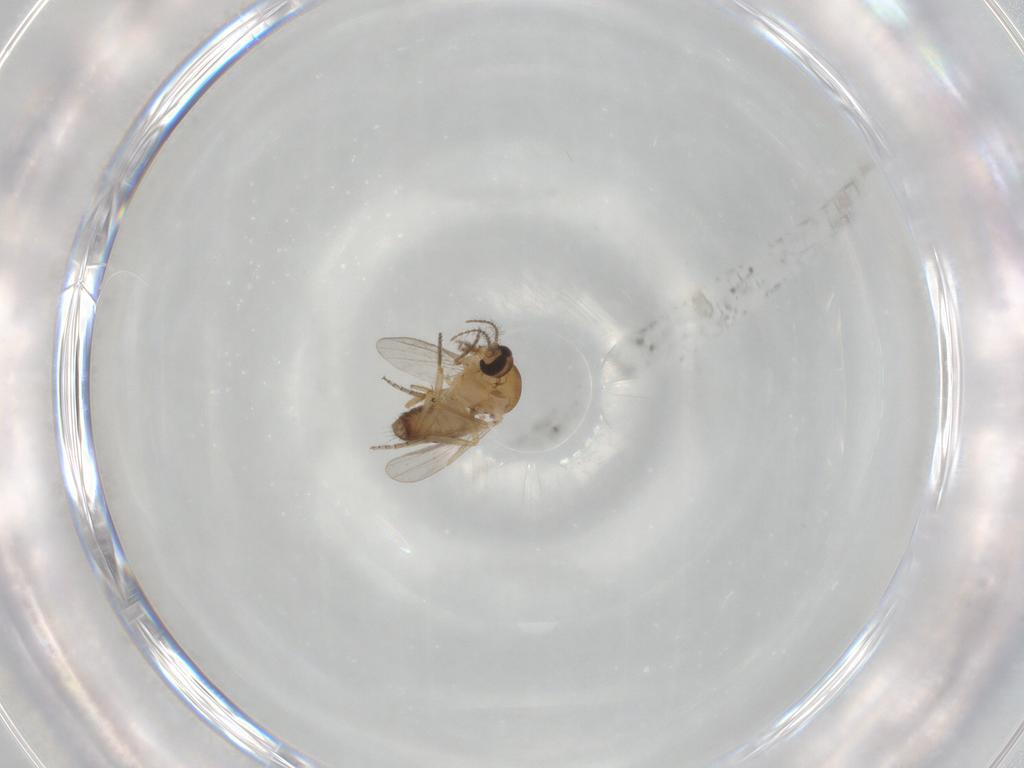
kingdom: Animalia
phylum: Arthropoda
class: Insecta
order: Diptera
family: Ceratopogonidae
